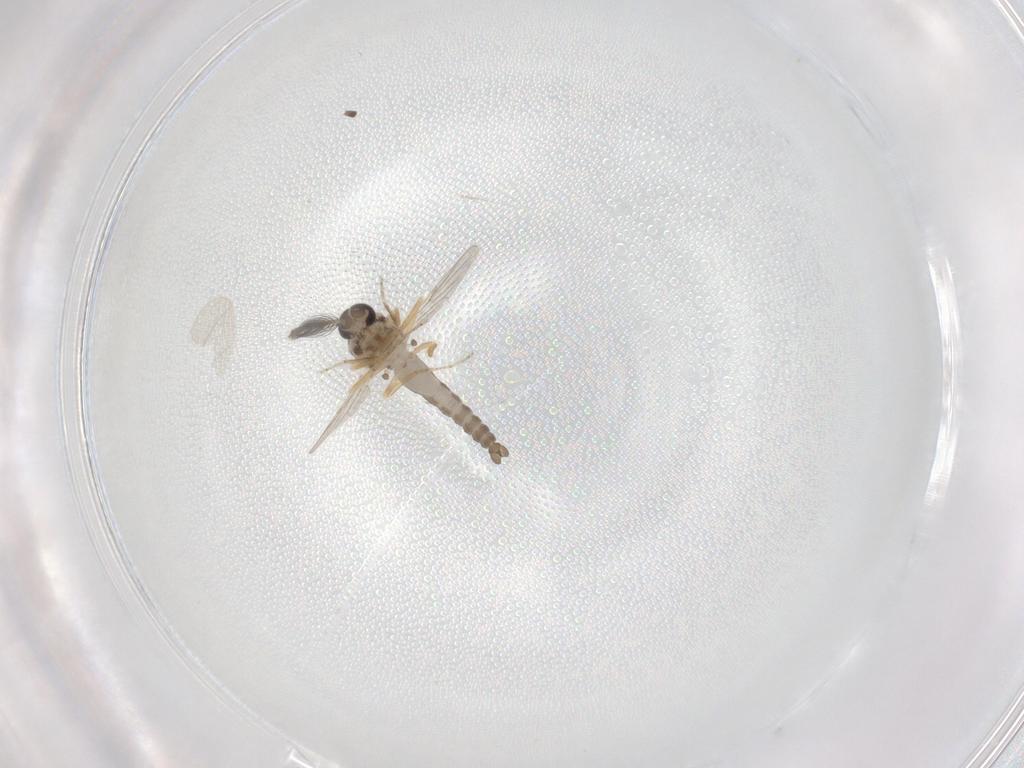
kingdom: Animalia
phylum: Arthropoda
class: Insecta
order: Diptera
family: Ceratopogonidae
